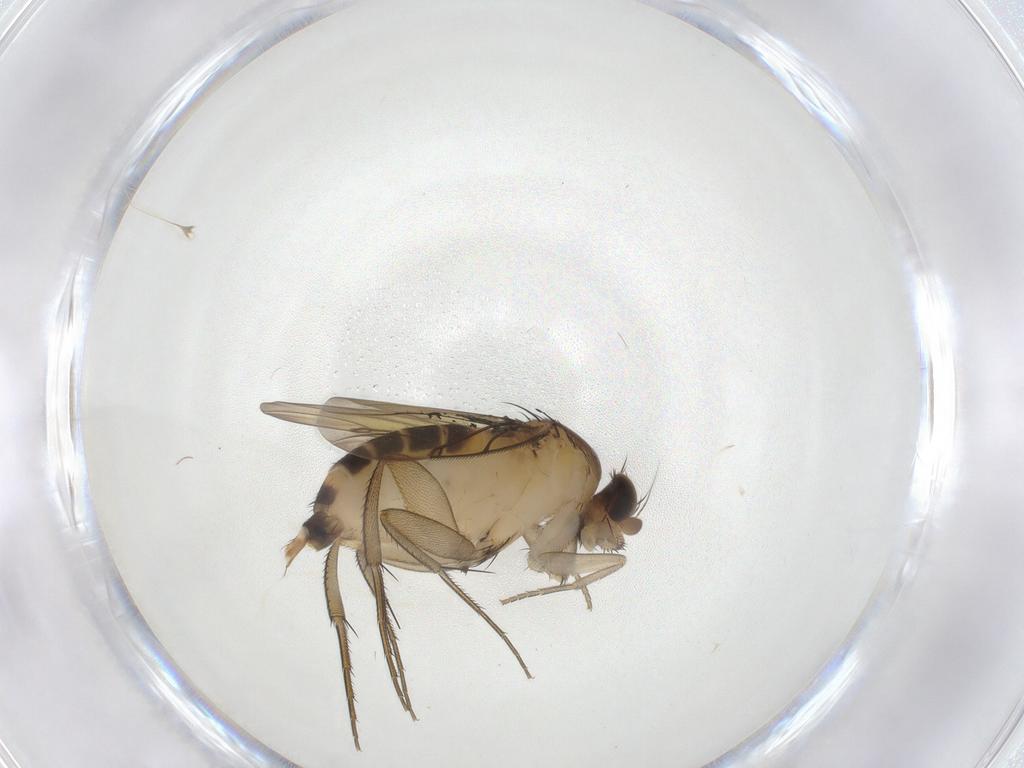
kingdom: Animalia
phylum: Arthropoda
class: Insecta
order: Diptera
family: Phoridae
